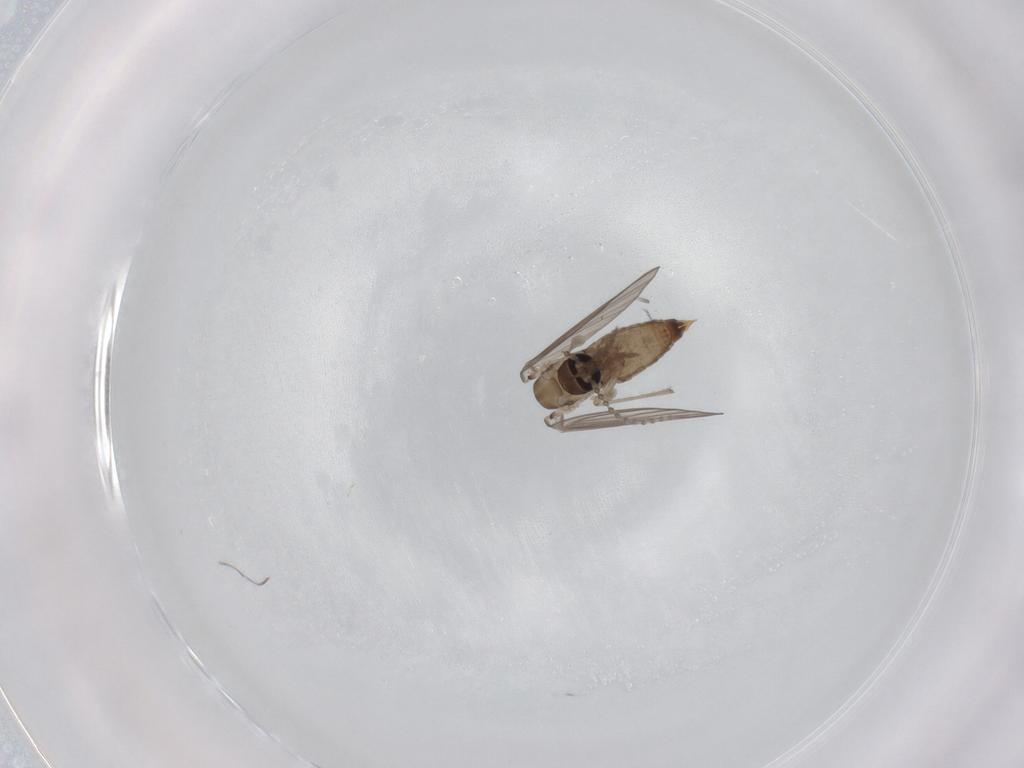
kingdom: Animalia
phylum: Arthropoda
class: Insecta
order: Diptera
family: Psychodidae
